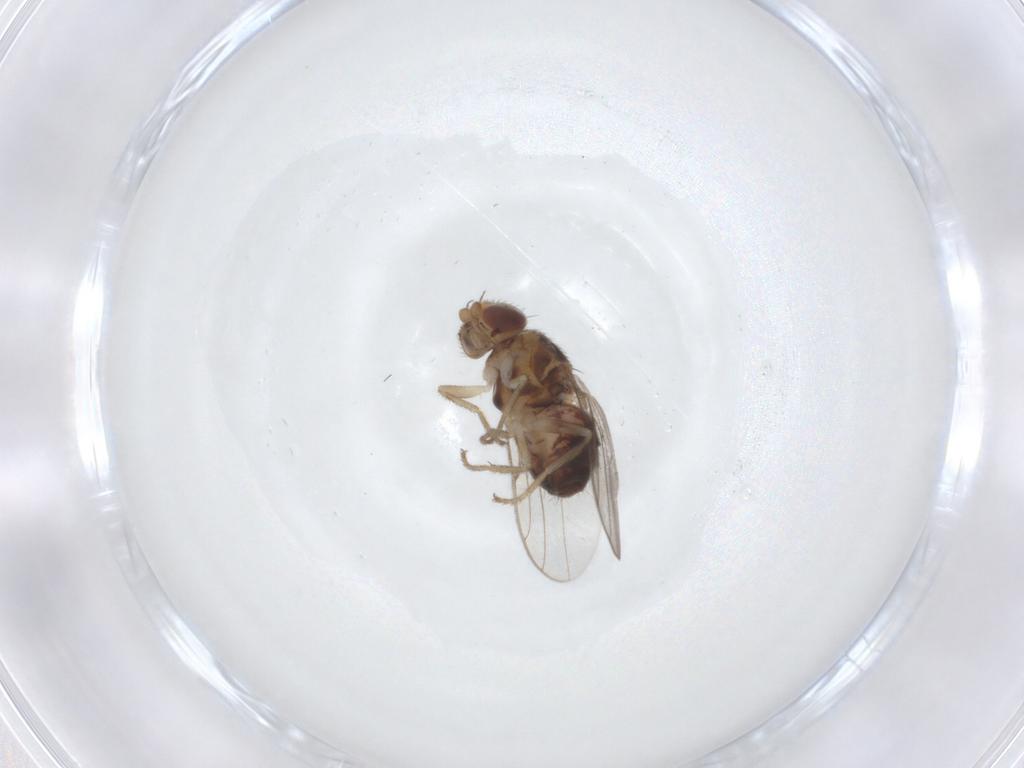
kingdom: Animalia
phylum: Arthropoda
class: Insecta
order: Diptera
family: Chloropidae
